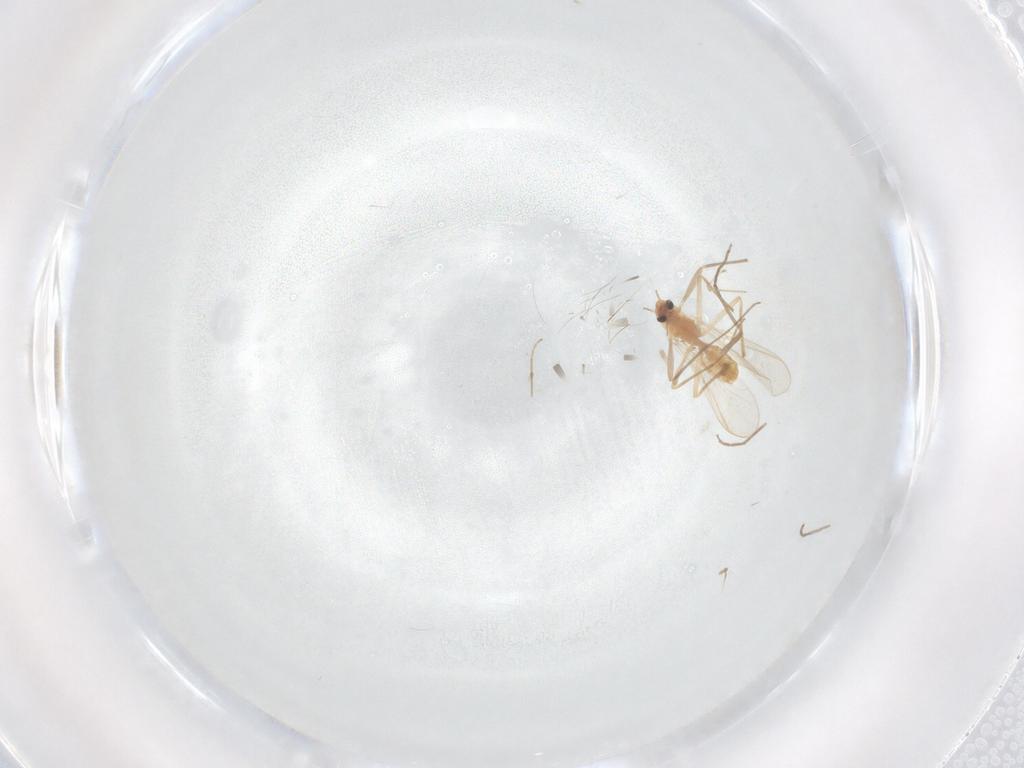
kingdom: Animalia
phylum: Arthropoda
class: Insecta
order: Diptera
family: Chironomidae
